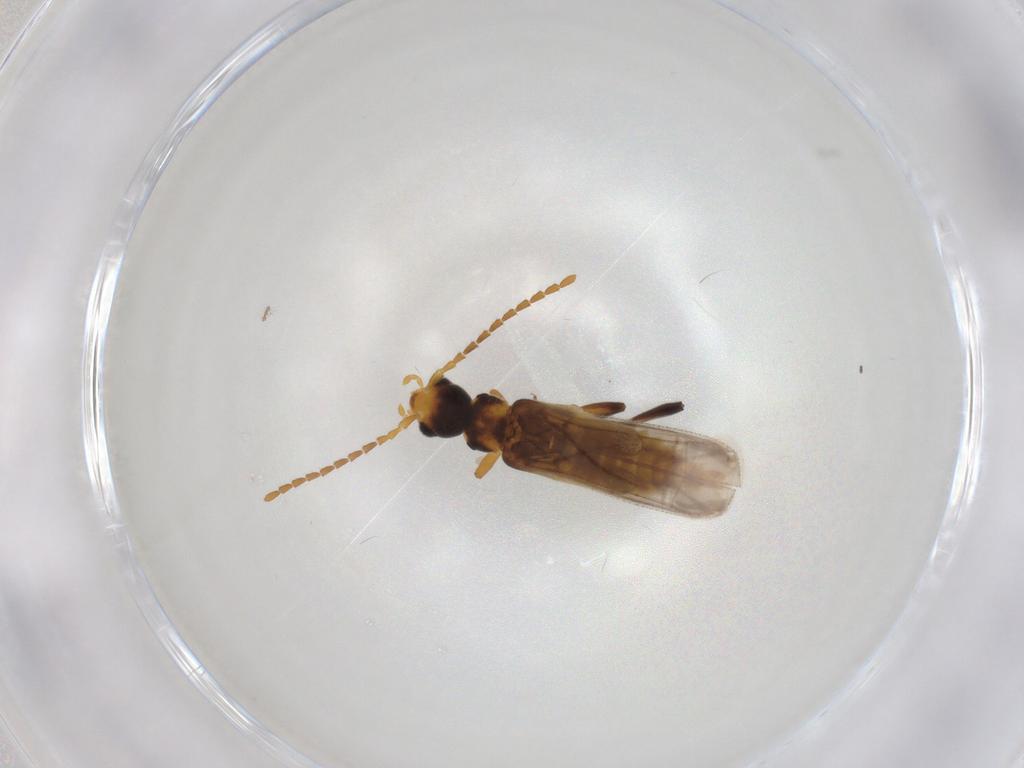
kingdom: Animalia
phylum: Arthropoda
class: Insecta
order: Coleoptera
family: Cantharidae
